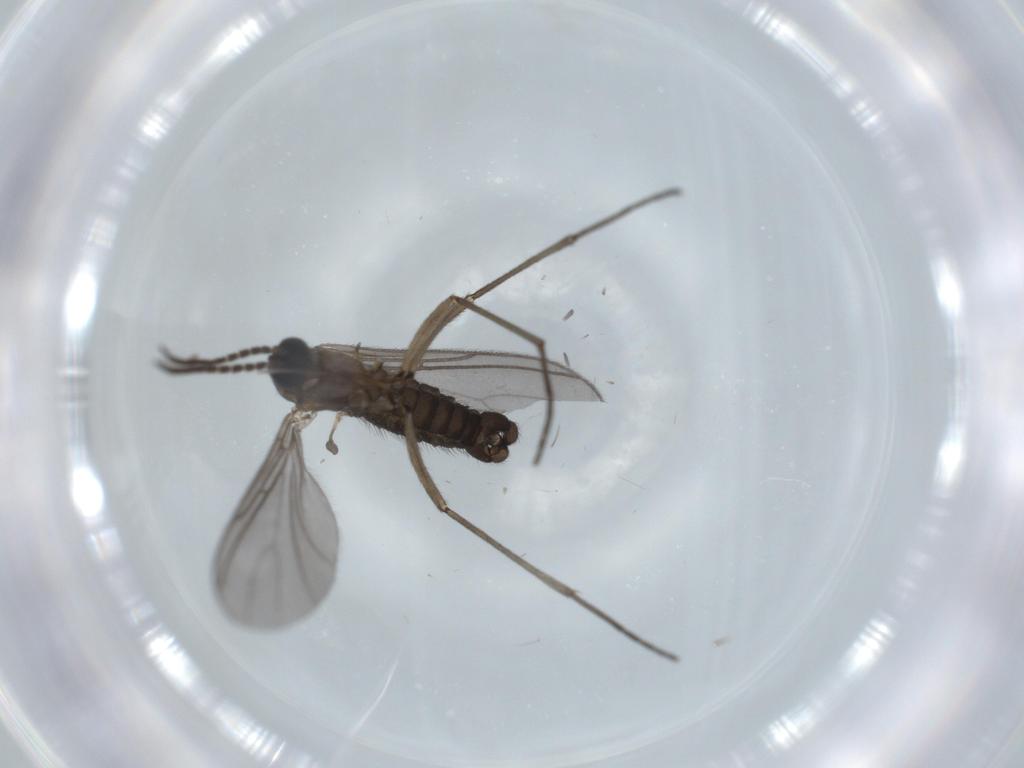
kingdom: Animalia
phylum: Arthropoda
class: Insecta
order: Diptera
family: Sciaridae
